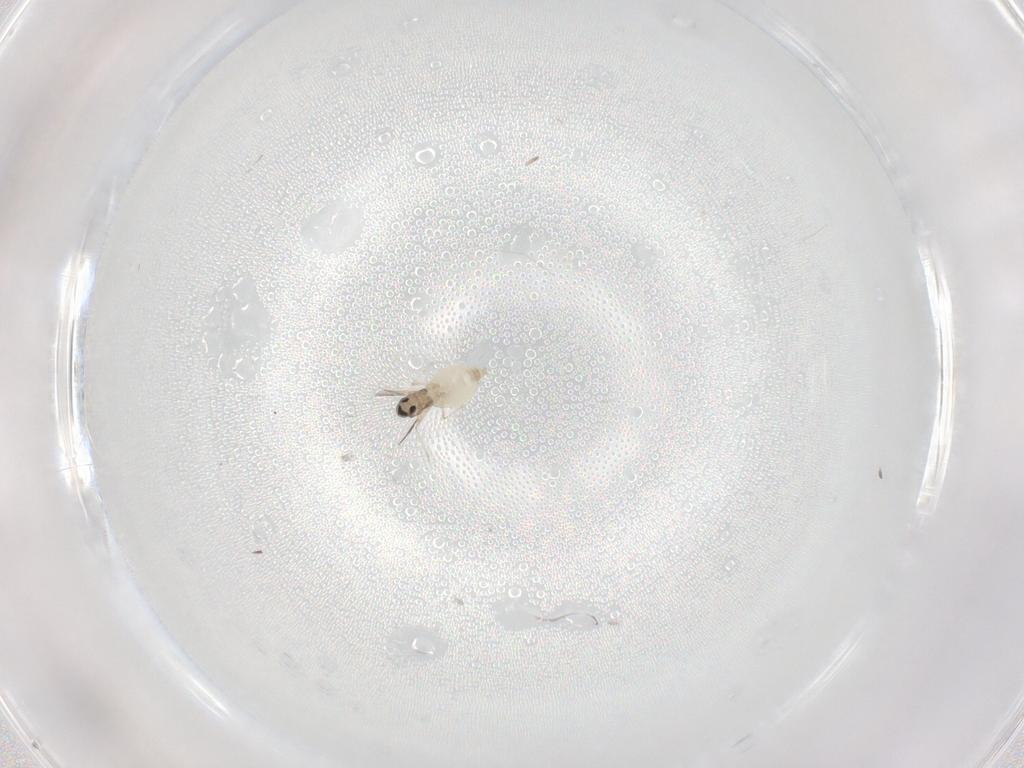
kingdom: Animalia
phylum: Arthropoda
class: Insecta
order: Diptera
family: Cecidomyiidae
